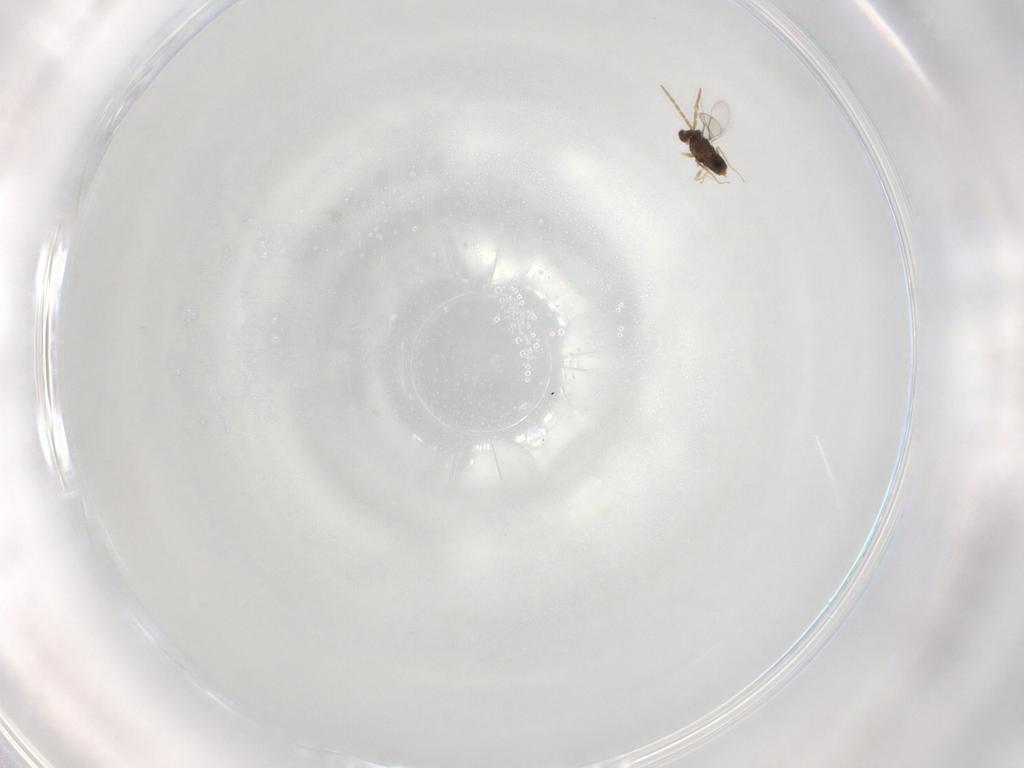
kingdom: Animalia
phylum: Arthropoda
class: Insecta
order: Hymenoptera
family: Aphelinidae
